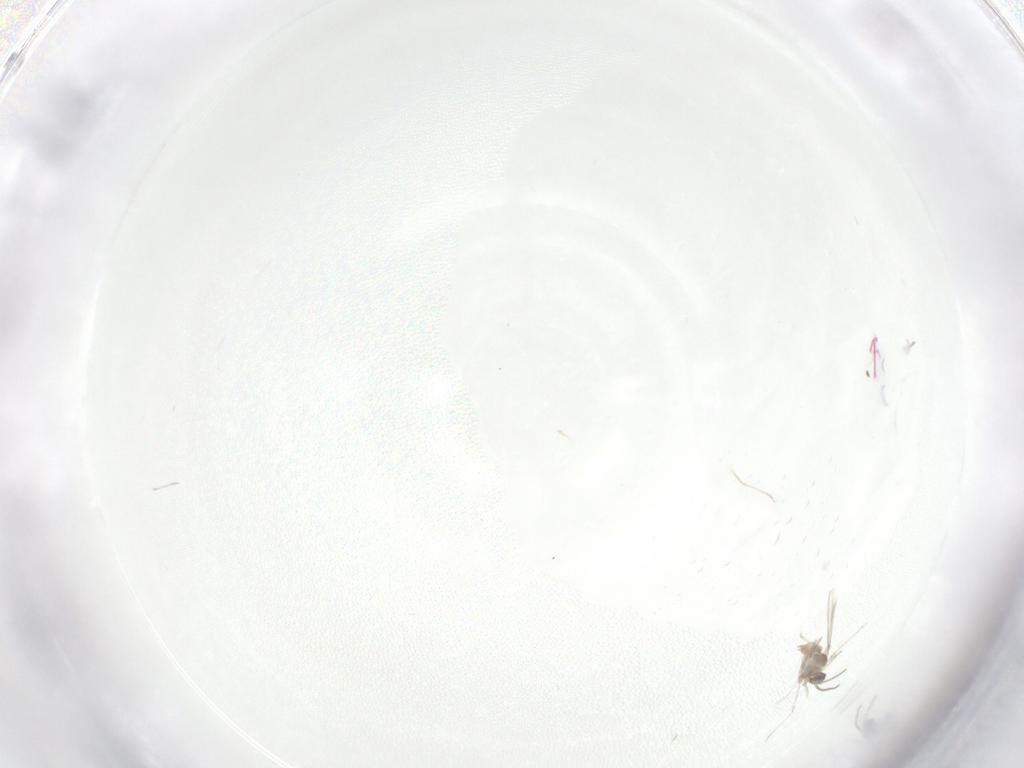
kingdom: Animalia
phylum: Arthropoda
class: Insecta
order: Diptera
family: Cecidomyiidae
